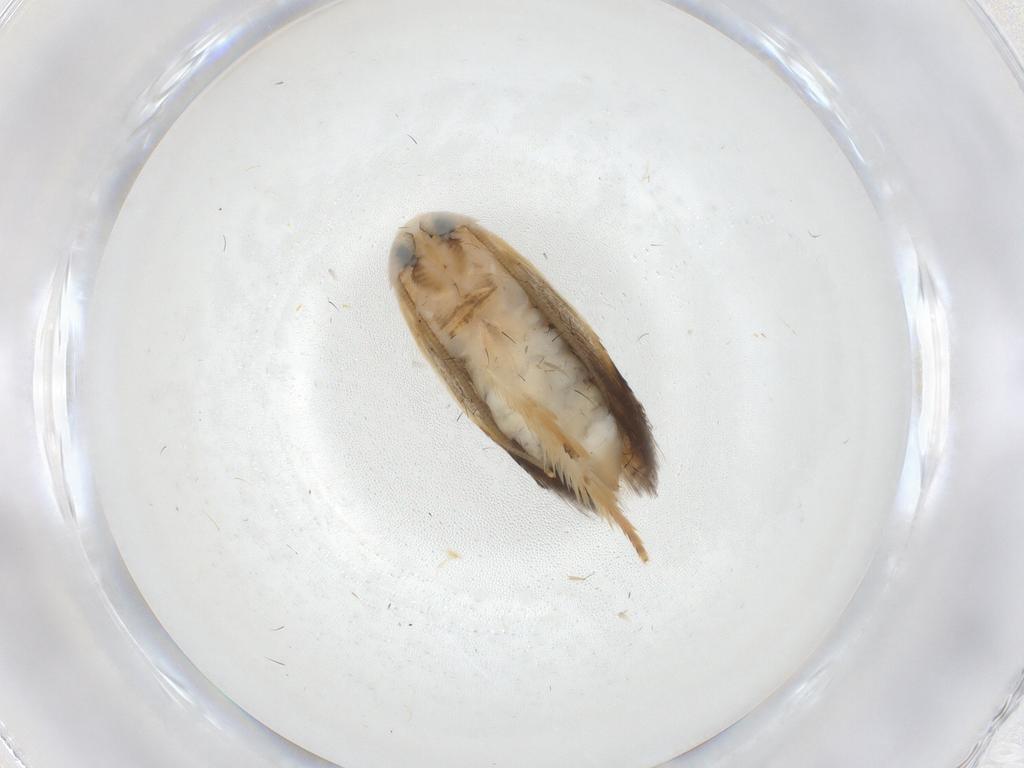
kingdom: Animalia
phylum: Arthropoda
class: Insecta
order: Lepidoptera
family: Opostegidae
